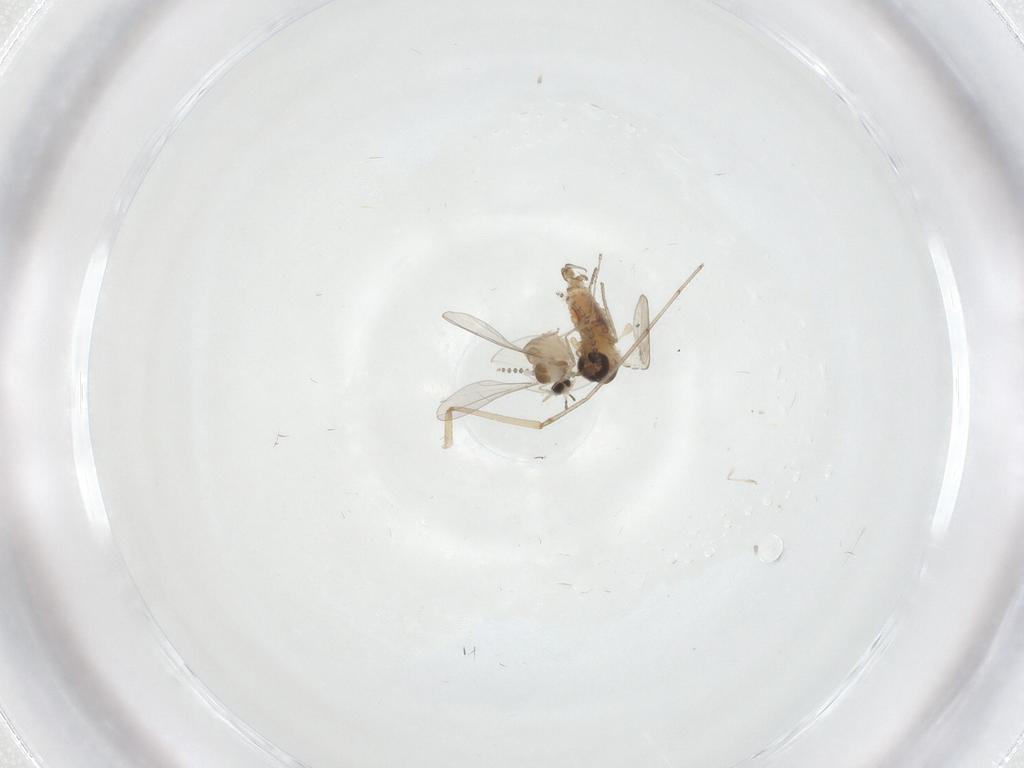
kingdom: Animalia
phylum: Arthropoda
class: Insecta
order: Diptera
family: Cecidomyiidae
